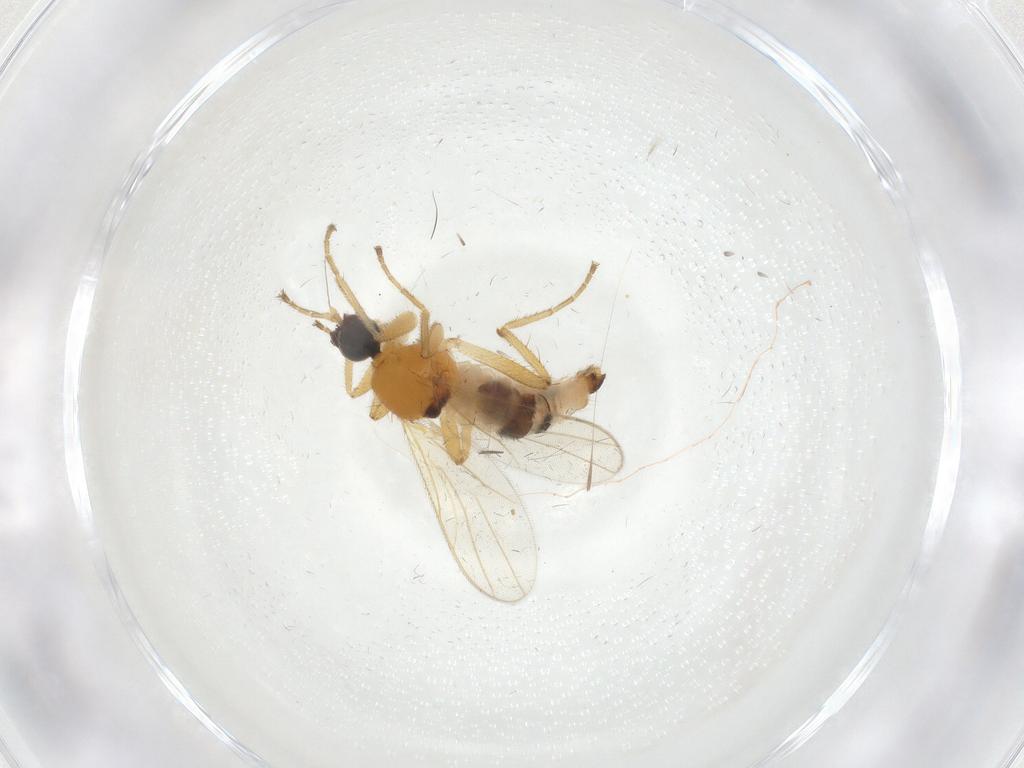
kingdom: Animalia
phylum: Arthropoda
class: Insecta
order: Diptera
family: Hybotidae
